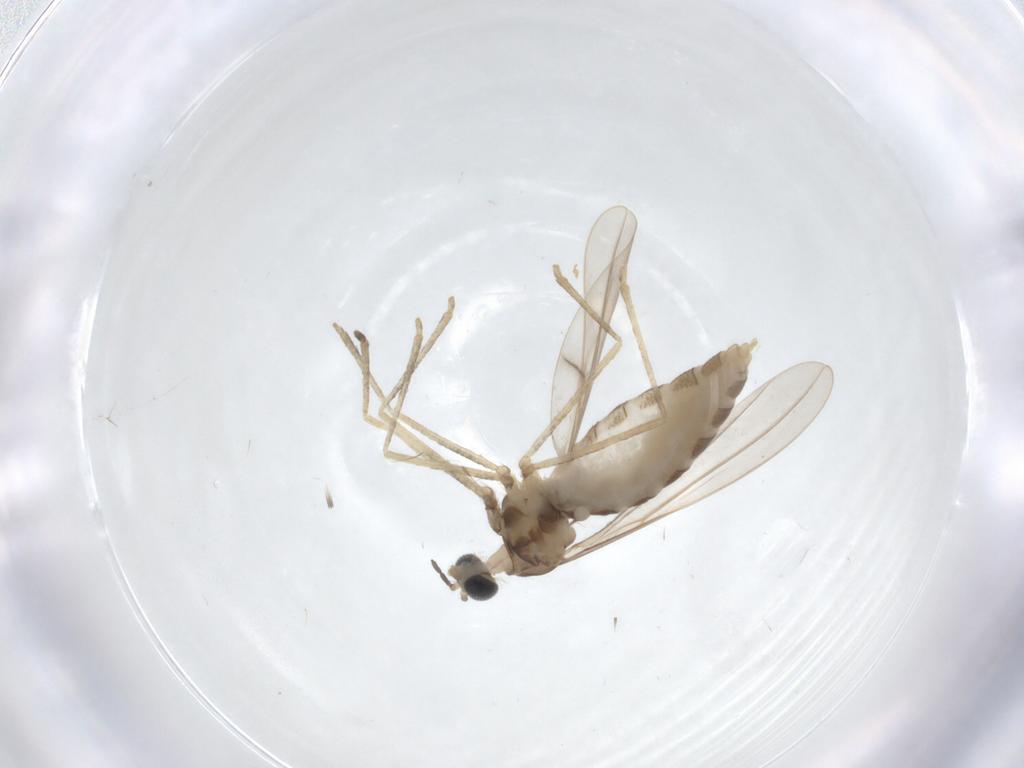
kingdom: Animalia
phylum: Arthropoda
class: Insecta
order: Diptera
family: Cecidomyiidae
